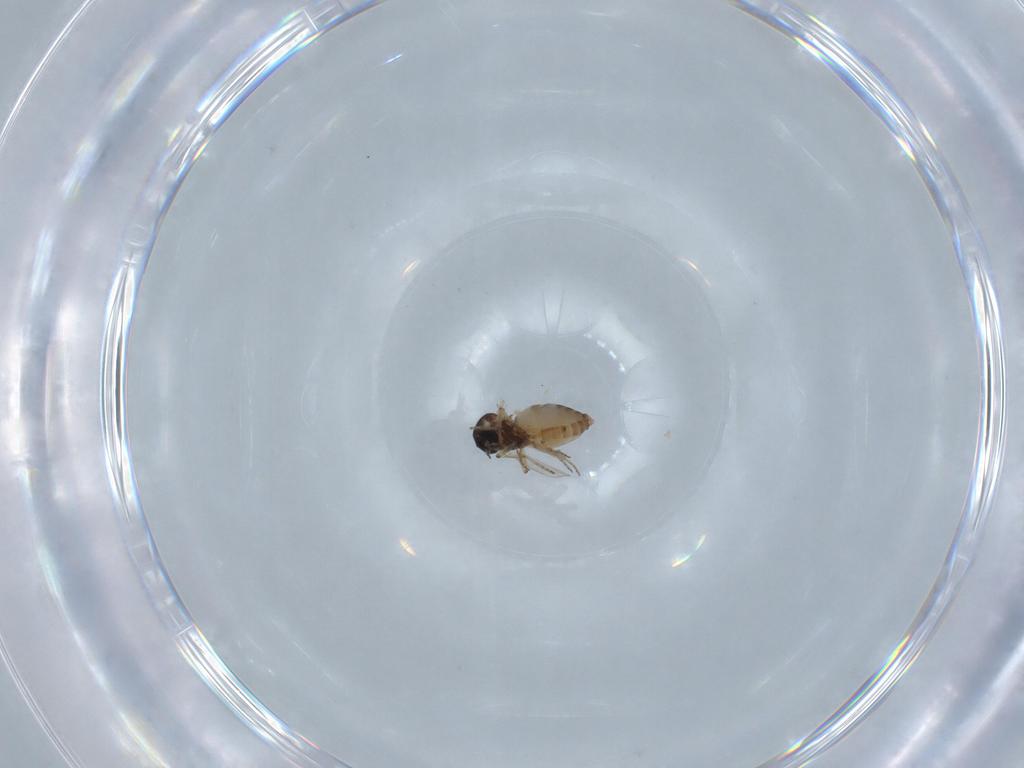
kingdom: Animalia
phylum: Arthropoda
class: Insecta
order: Diptera
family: Ceratopogonidae
